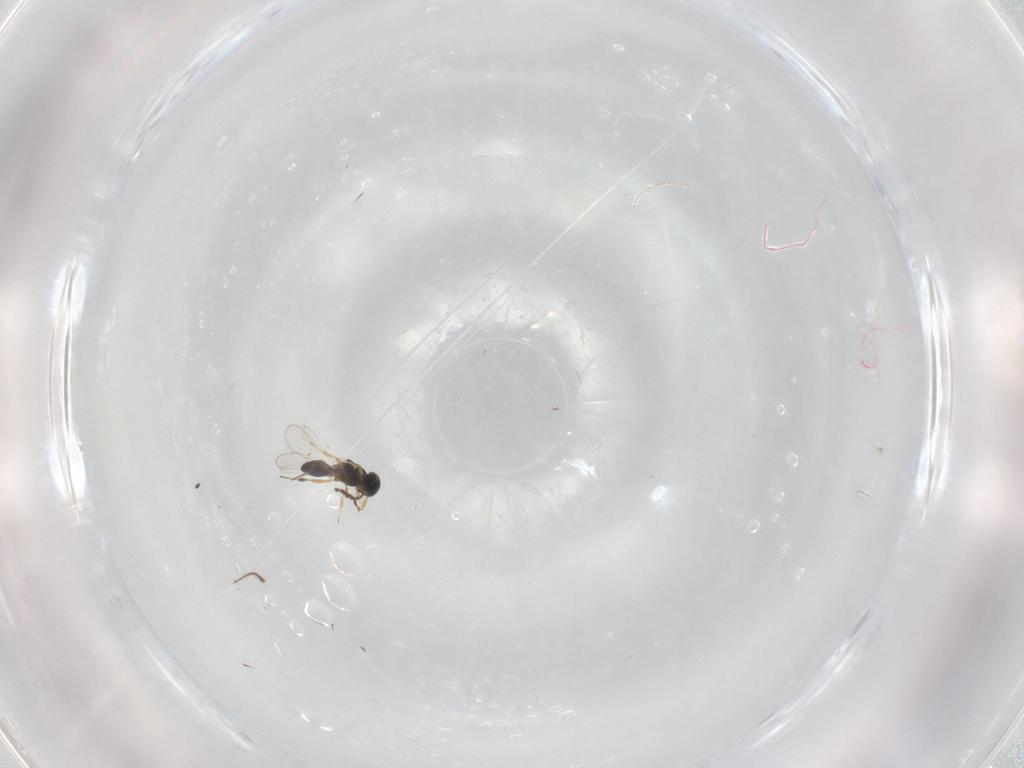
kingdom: Animalia
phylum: Arthropoda
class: Insecta
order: Hymenoptera
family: Platygastridae
